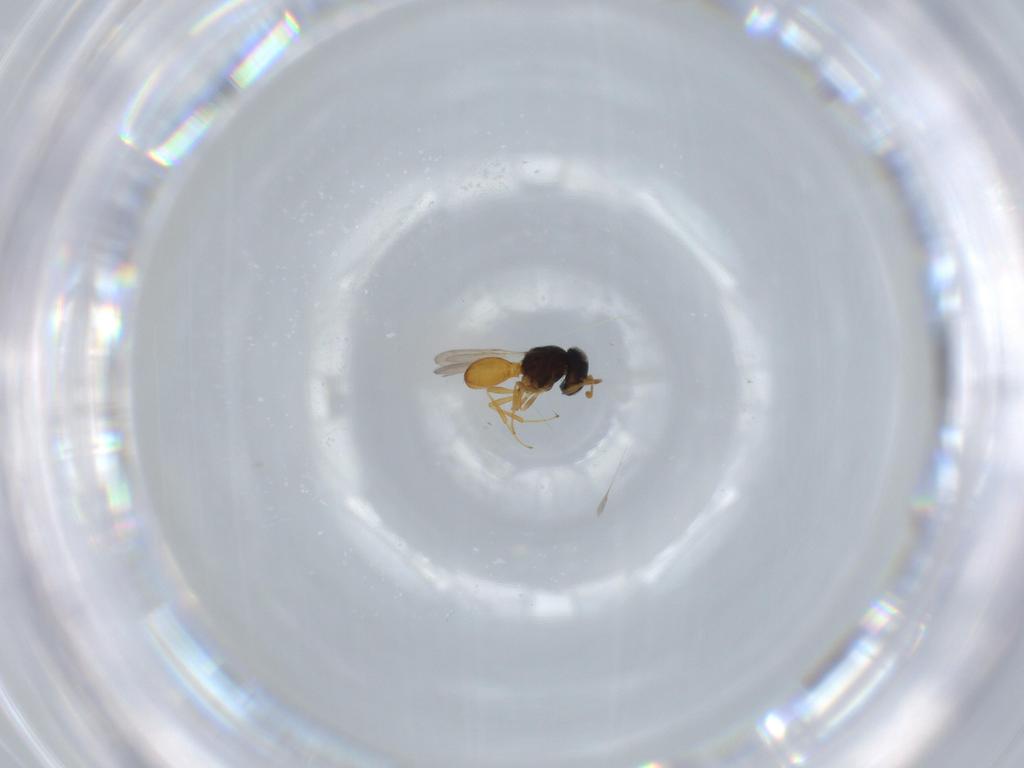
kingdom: Animalia
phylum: Arthropoda
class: Insecta
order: Hymenoptera
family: Scelionidae
